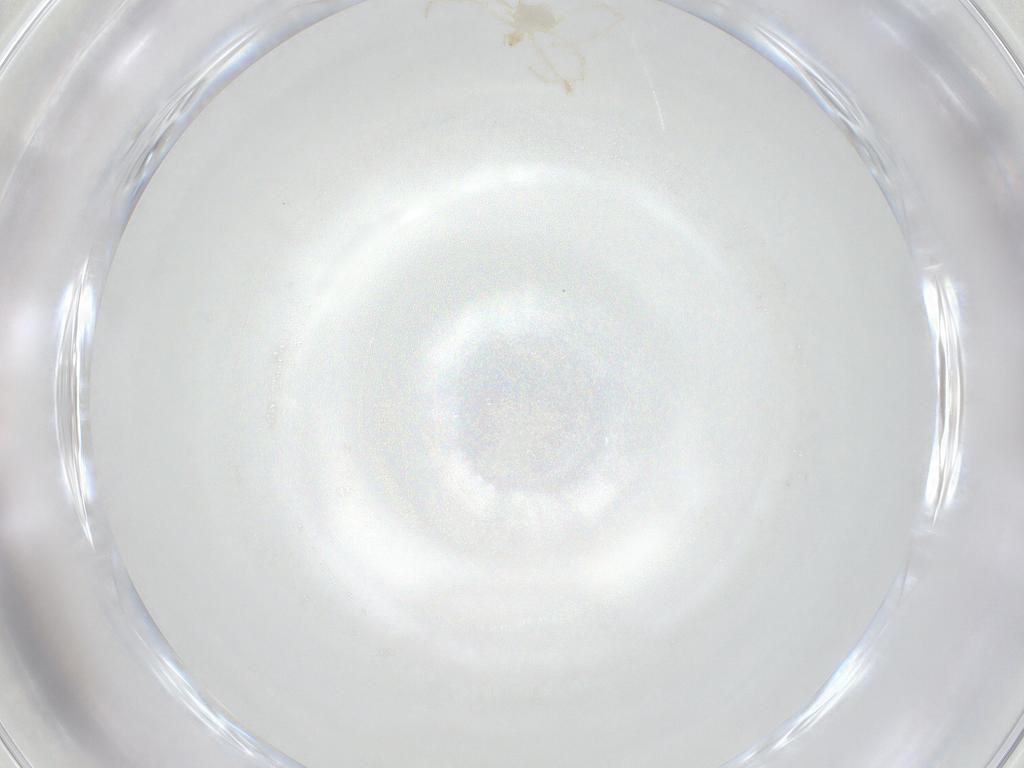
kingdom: Animalia
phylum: Arthropoda
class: Arachnida
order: Trombidiformes
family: Erythraeidae
